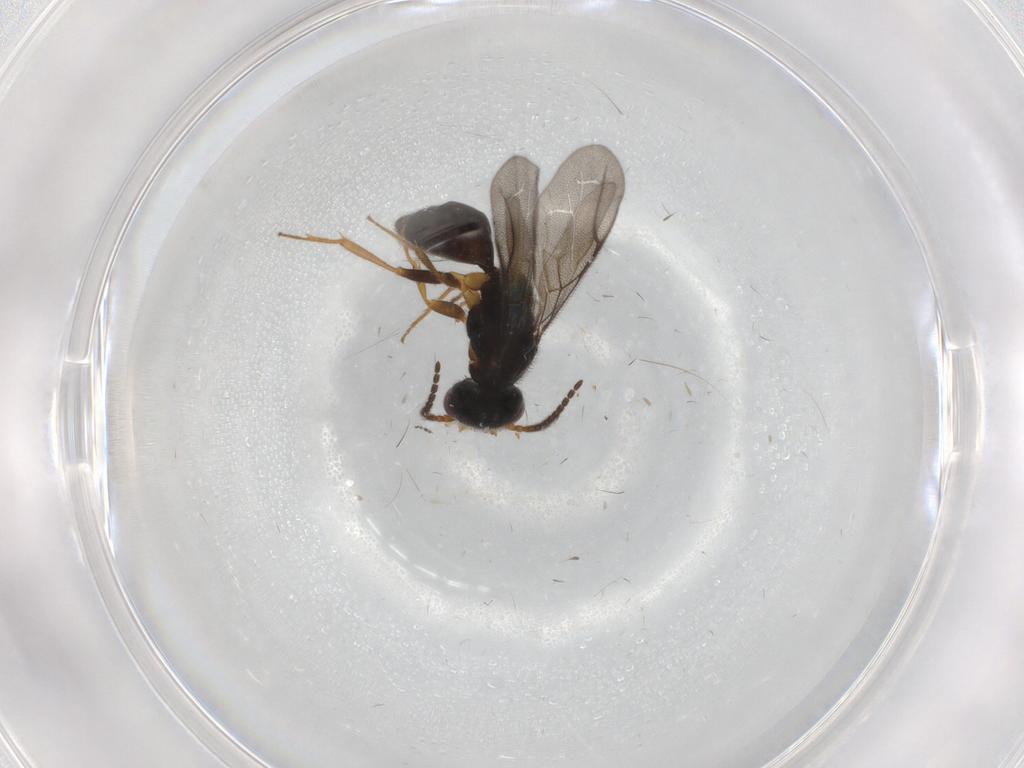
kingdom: Animalia
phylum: Arthropoda
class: Insecta
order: Hymenoptera
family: Bethylidae
